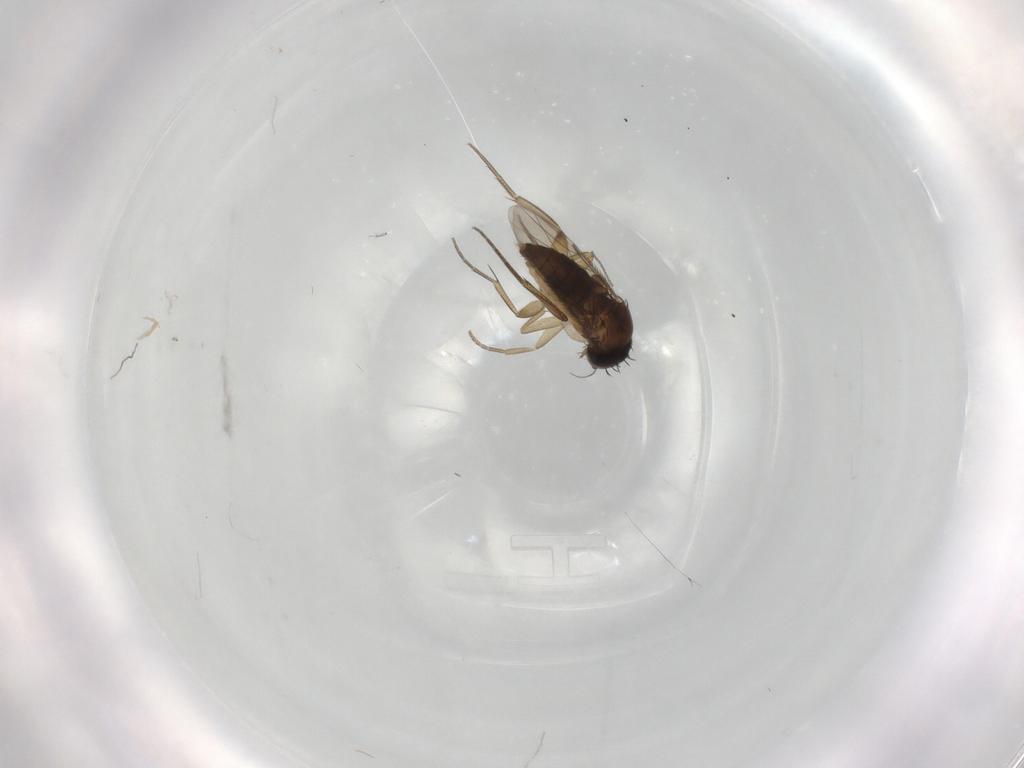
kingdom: Animalia
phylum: Arthropoda
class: Insecta
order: Diptera
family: Phoridae
